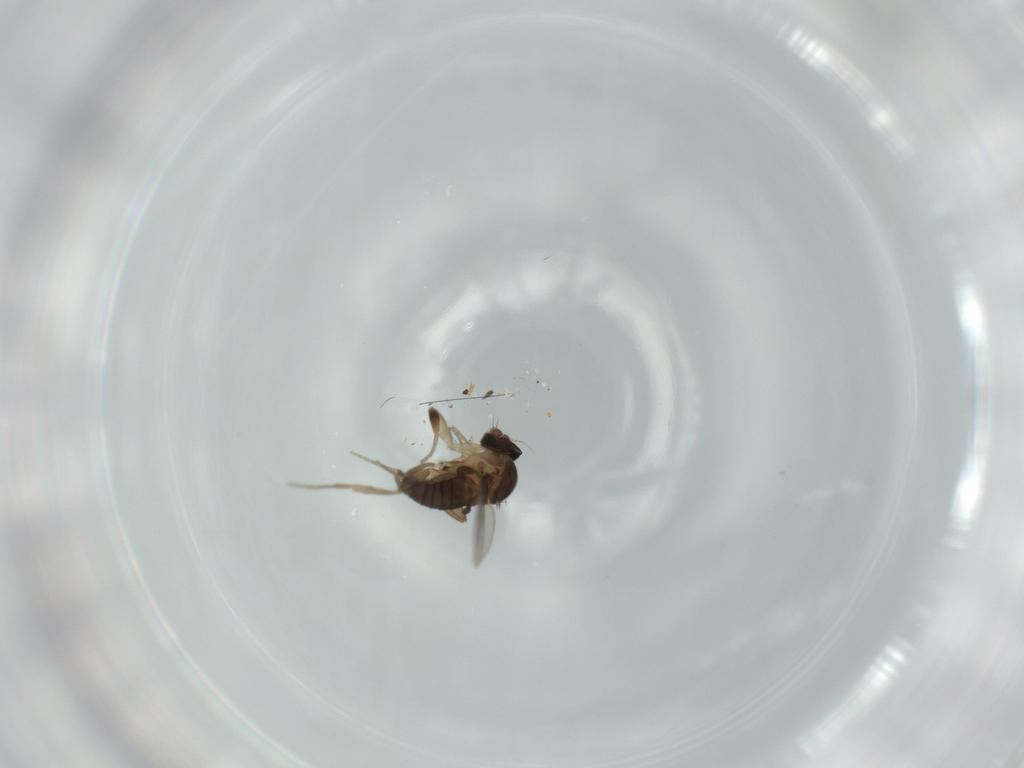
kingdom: Animalia
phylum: Arthropoda
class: Insecta
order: Diptera
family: Phoridae
